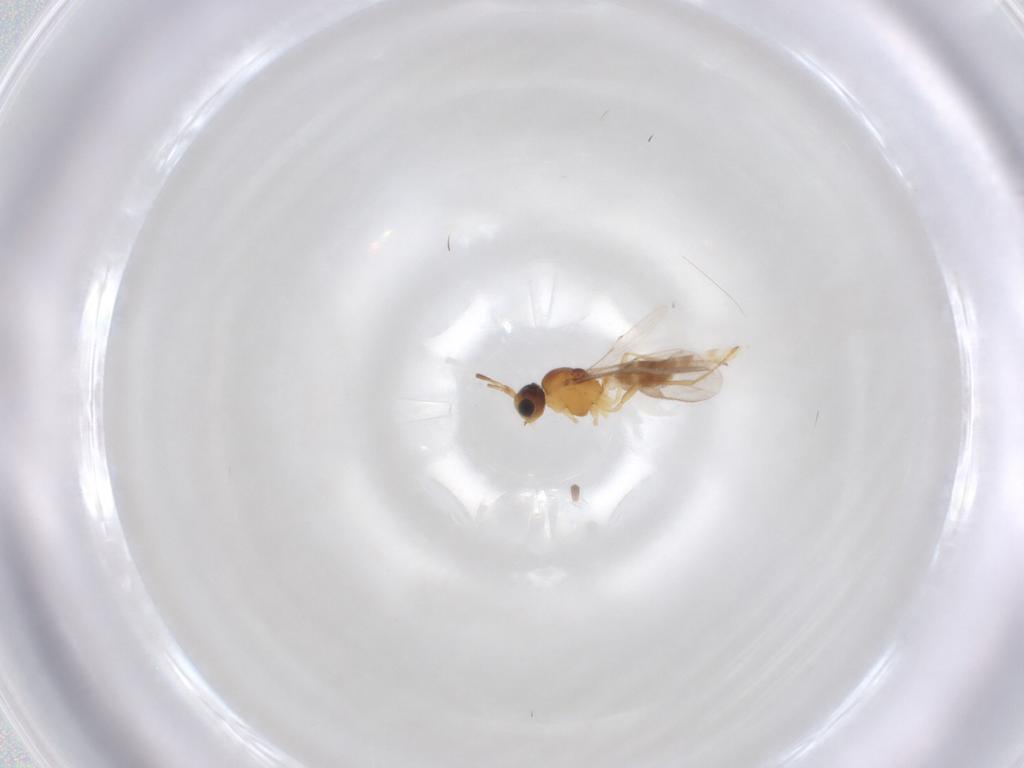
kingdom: Animalia
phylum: Arthropoda
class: Insecta
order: Hymenoptera
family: Braconidae
